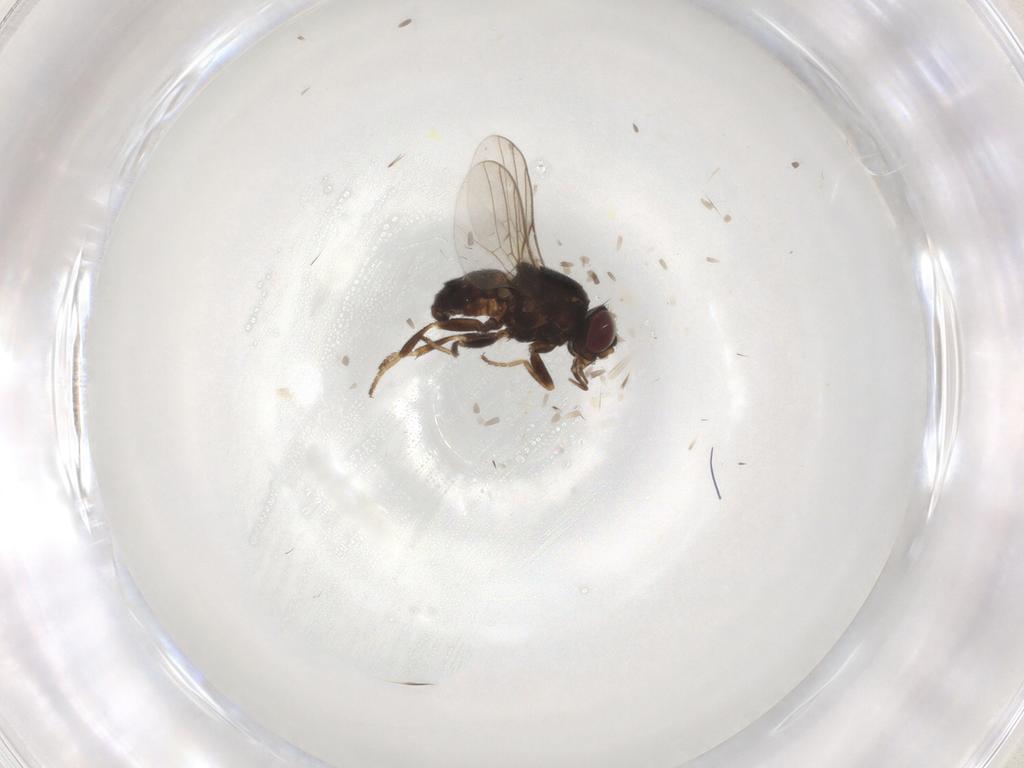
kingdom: Animalia
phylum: Arthropoda
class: Insecta
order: Diptera
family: Chloropidae
